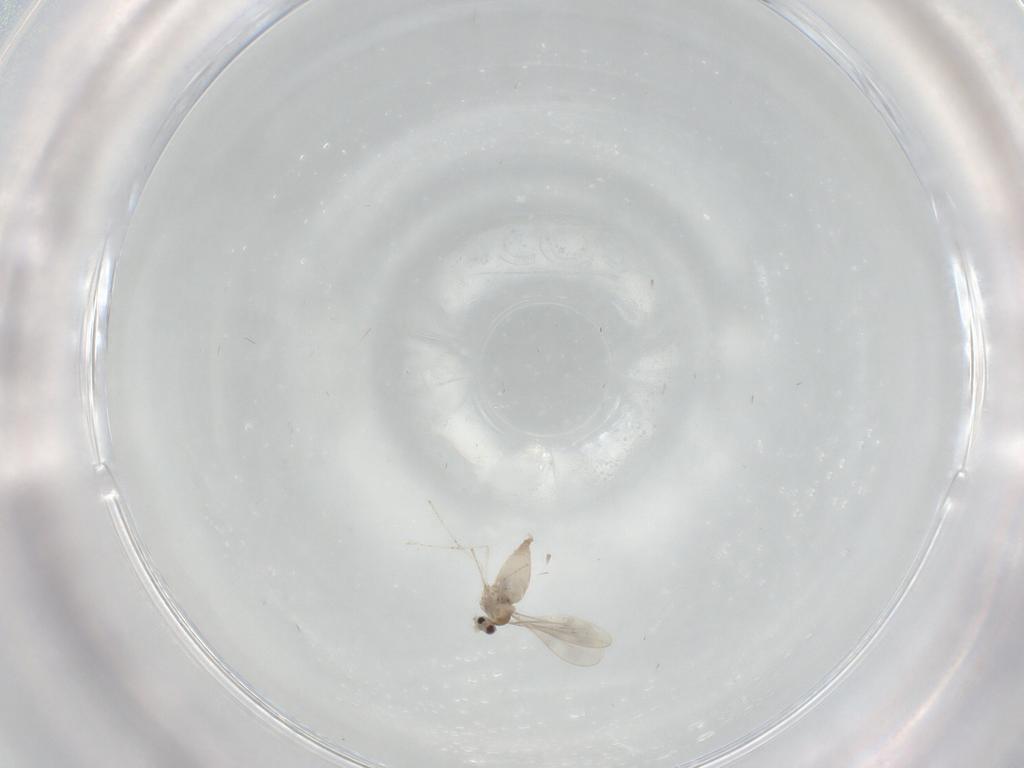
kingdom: Animalia
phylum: Arthropoda
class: Insecta
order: Diptera
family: Cecidomyiidae
